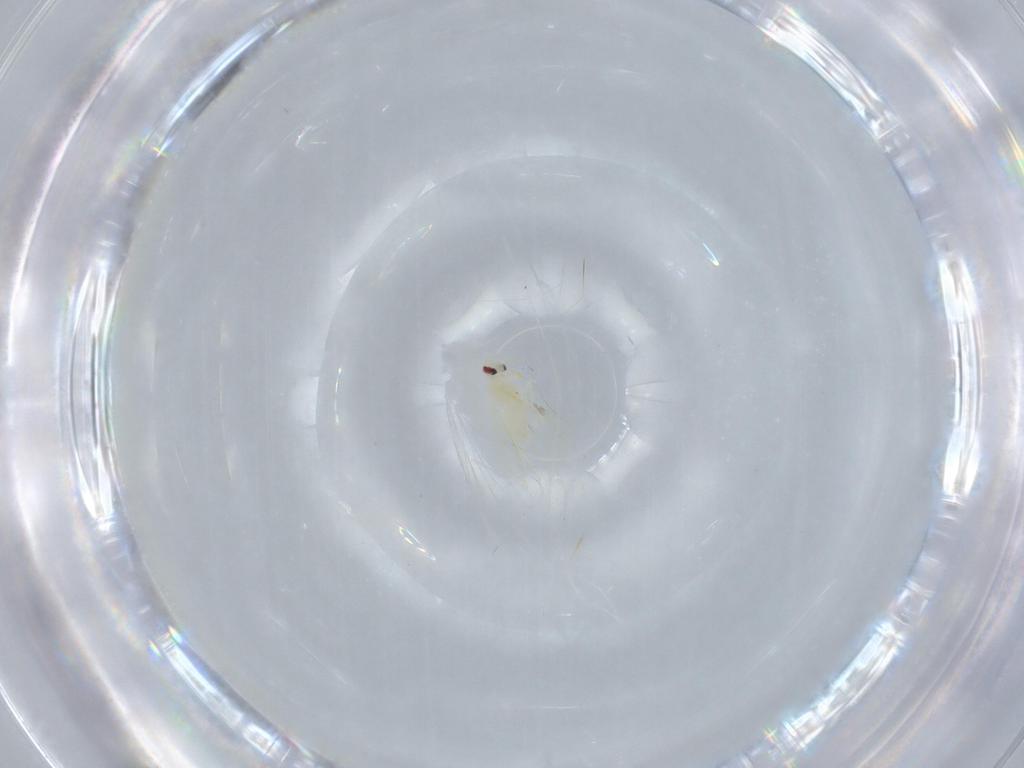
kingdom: Animalia
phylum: Arthropoda
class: Insecta
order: Hemiptera
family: Aleyrodidae
